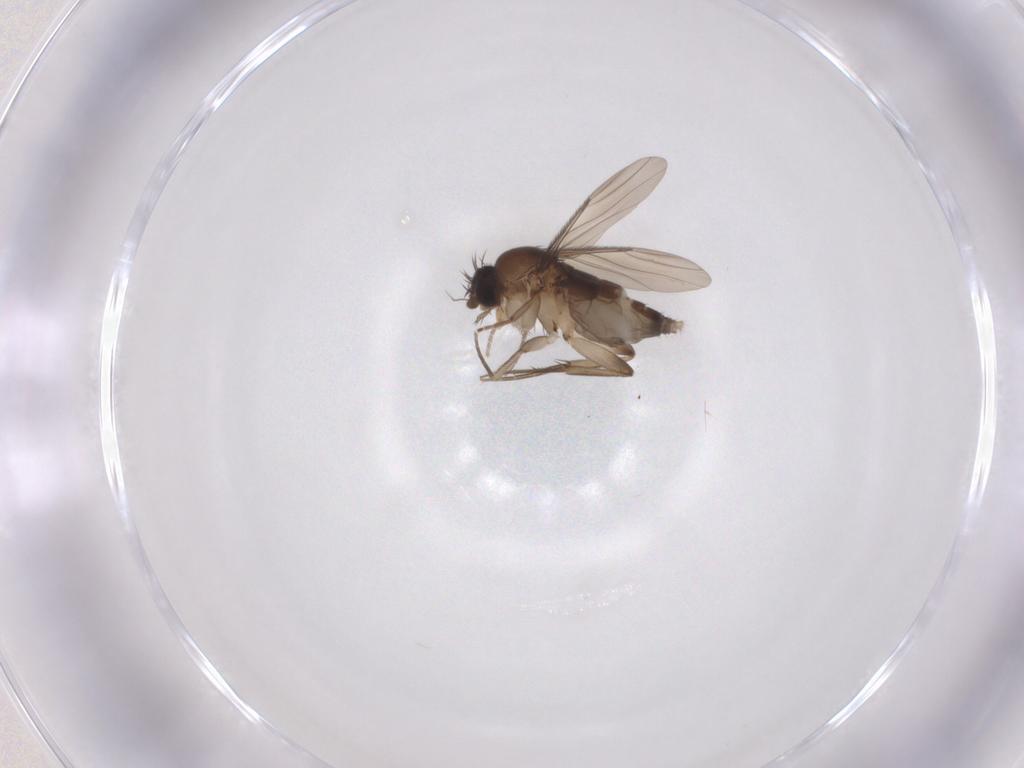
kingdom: Animalia
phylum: Arthropoda
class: Insecta
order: Diptera
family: Phoridae
